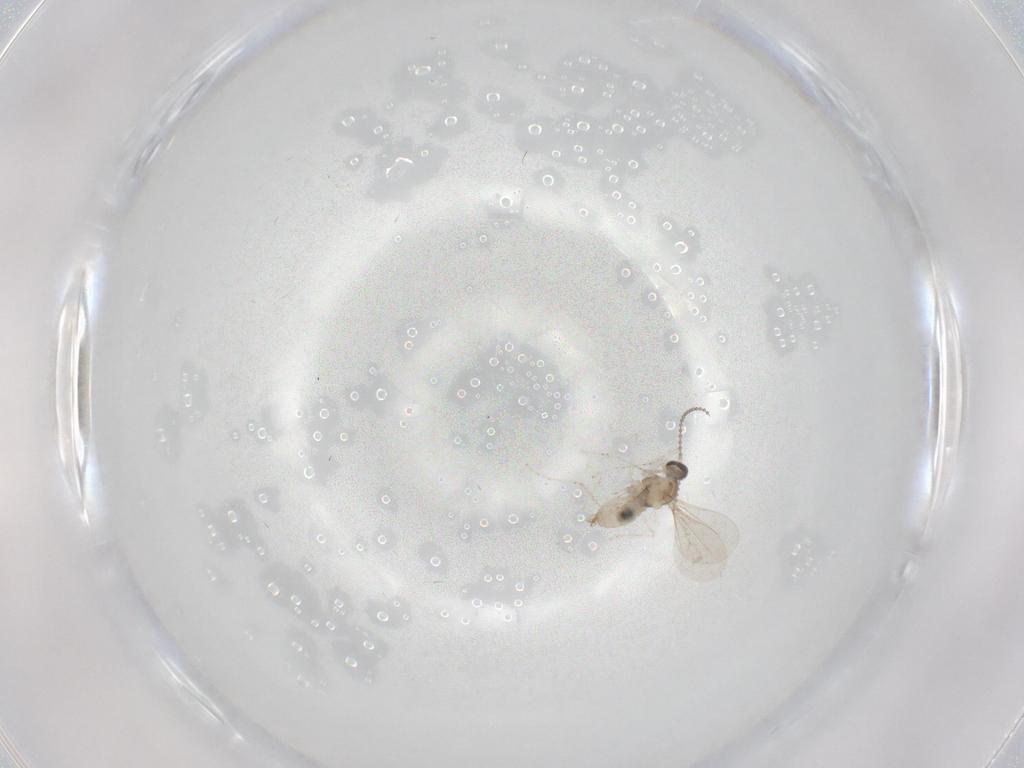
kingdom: Animalia
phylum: Arthropoda
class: Insecta
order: Diptera
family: Cecidomyiidae
